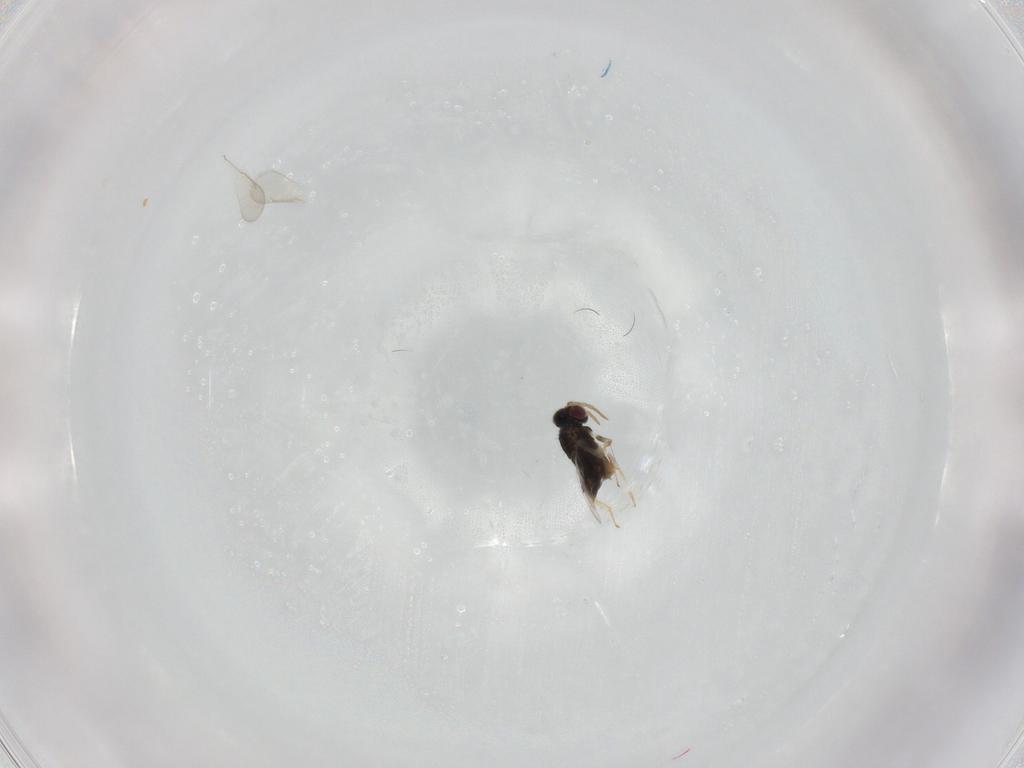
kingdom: Animalia
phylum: Arthropoda
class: Insecta
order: Hymenoptera
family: Aphelinidae
